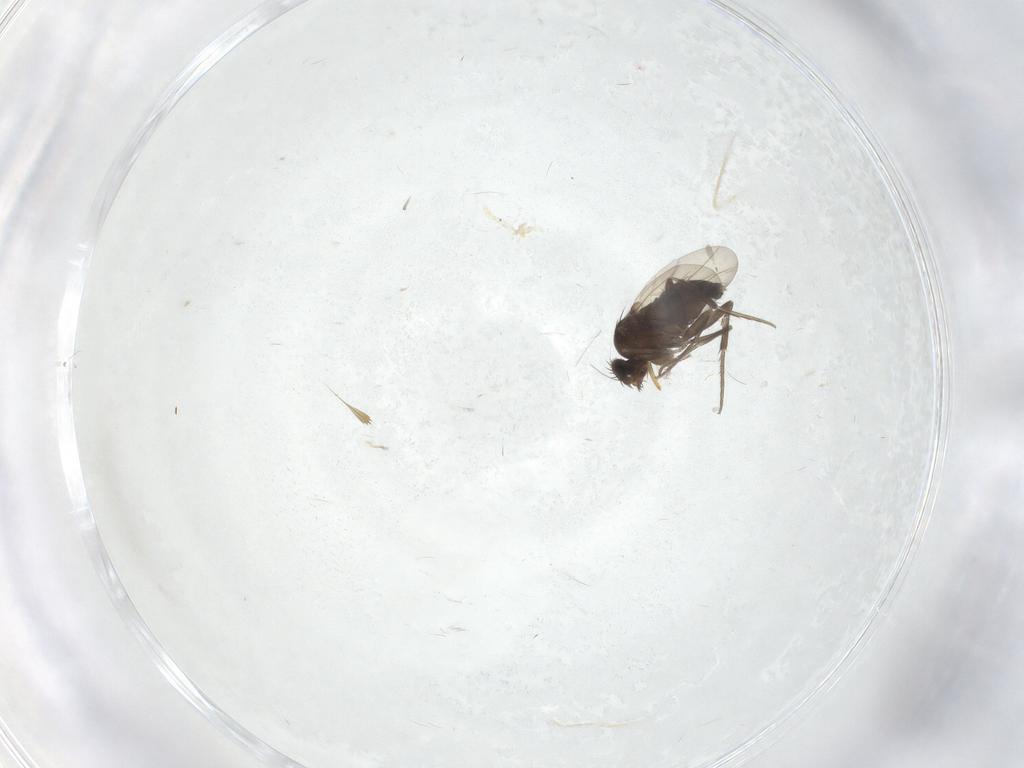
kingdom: Animalia
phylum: Arthropoda
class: Insecta
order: Diptera
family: Phoridae
